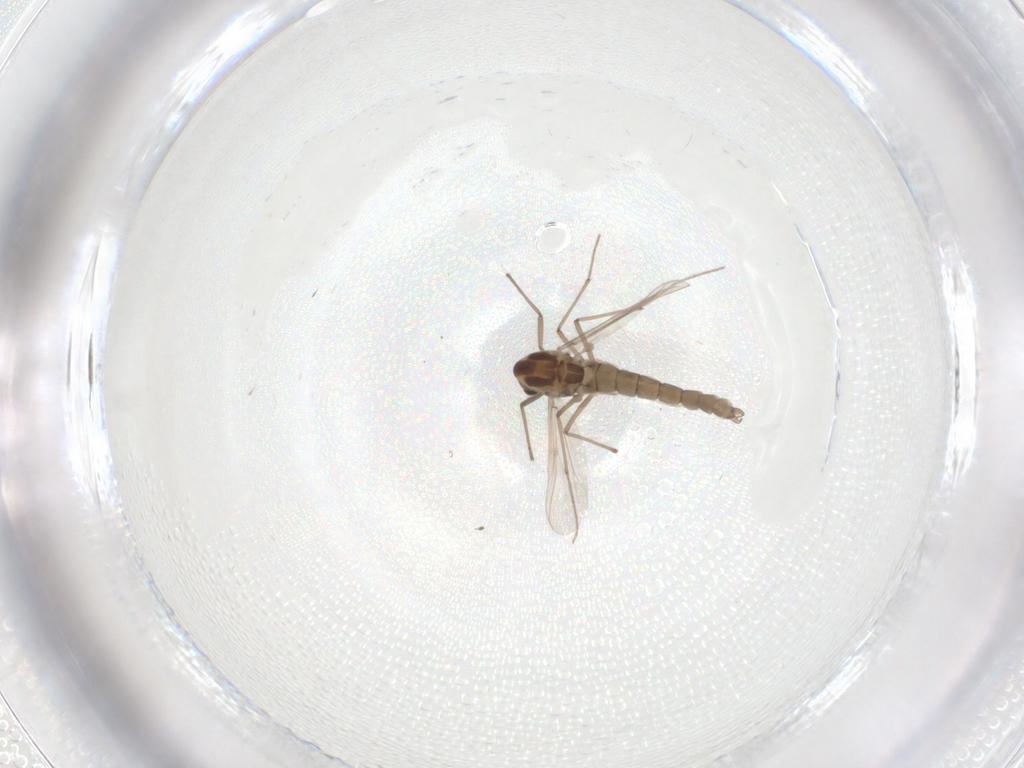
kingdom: Animalia
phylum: Arthropoda
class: Insecta
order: Diptera
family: Chironomidae
